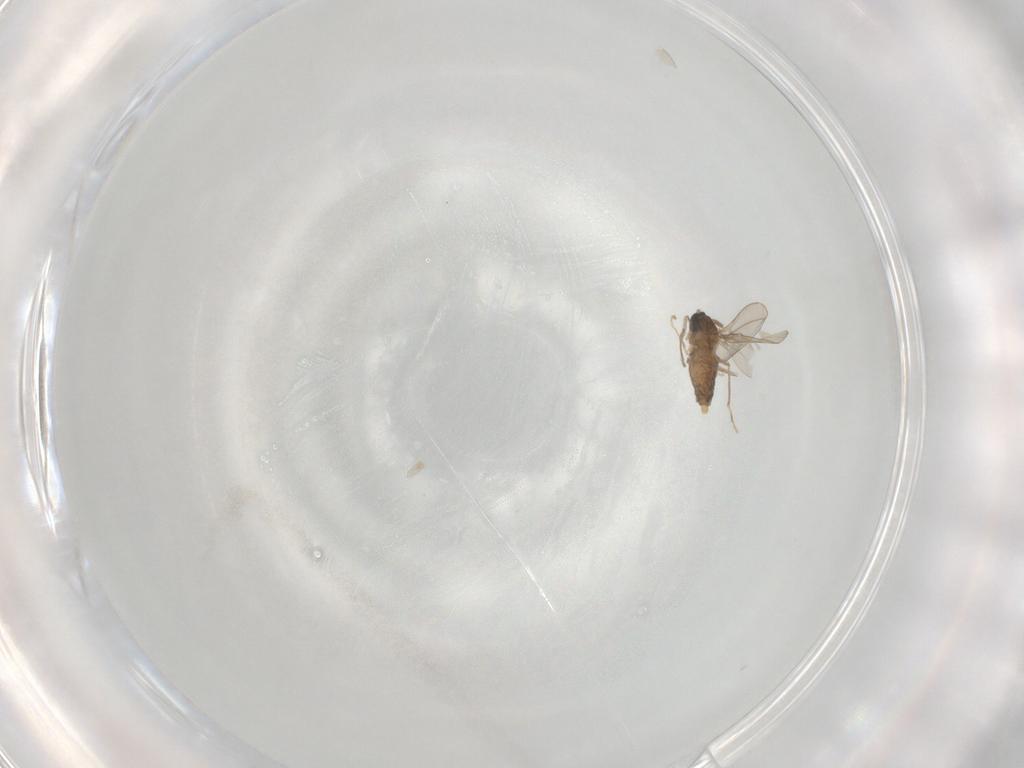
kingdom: Animalia
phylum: Arthropoda
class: Insecta
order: Diptera
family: Cecidomyiidae
